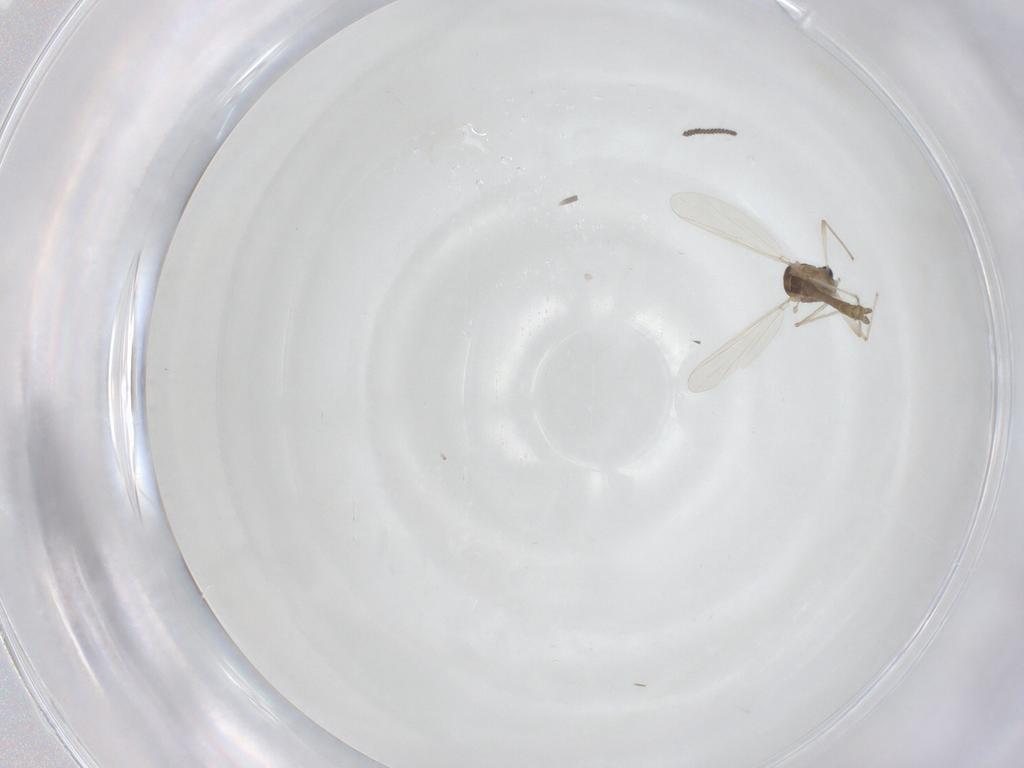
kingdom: Animalia
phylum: Arthropoda
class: Insecta
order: Diptera
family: Sciaridae
